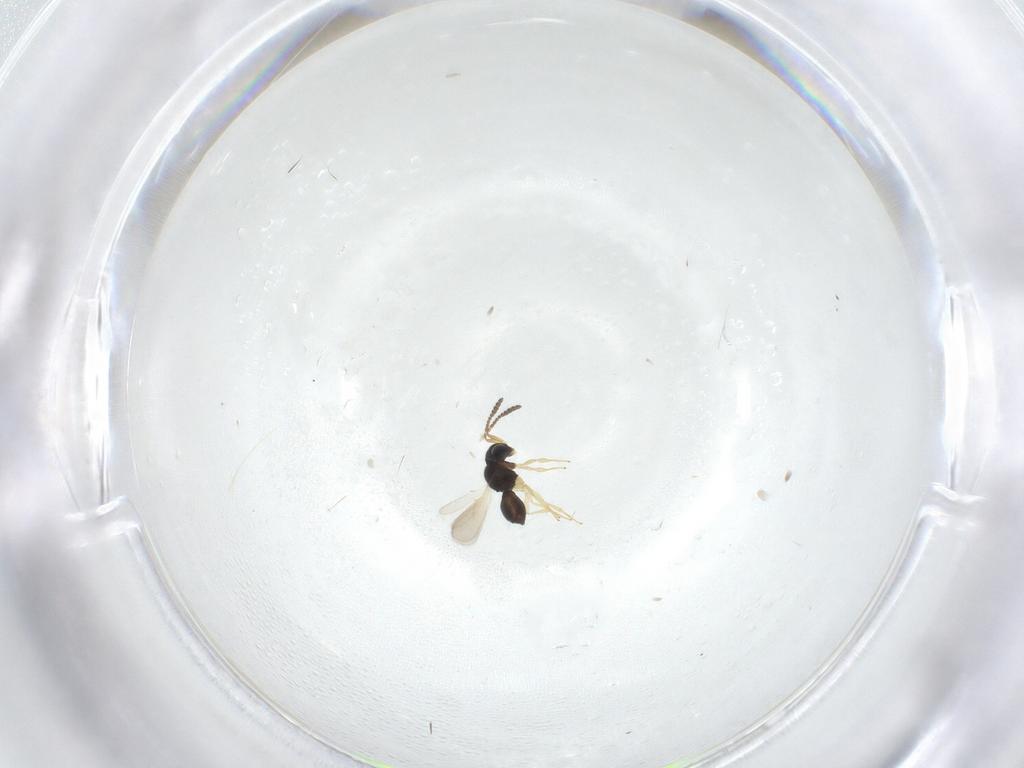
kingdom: Animalia
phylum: Arthropoda
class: Insecta
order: Hymenoptera
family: Scelionidae
